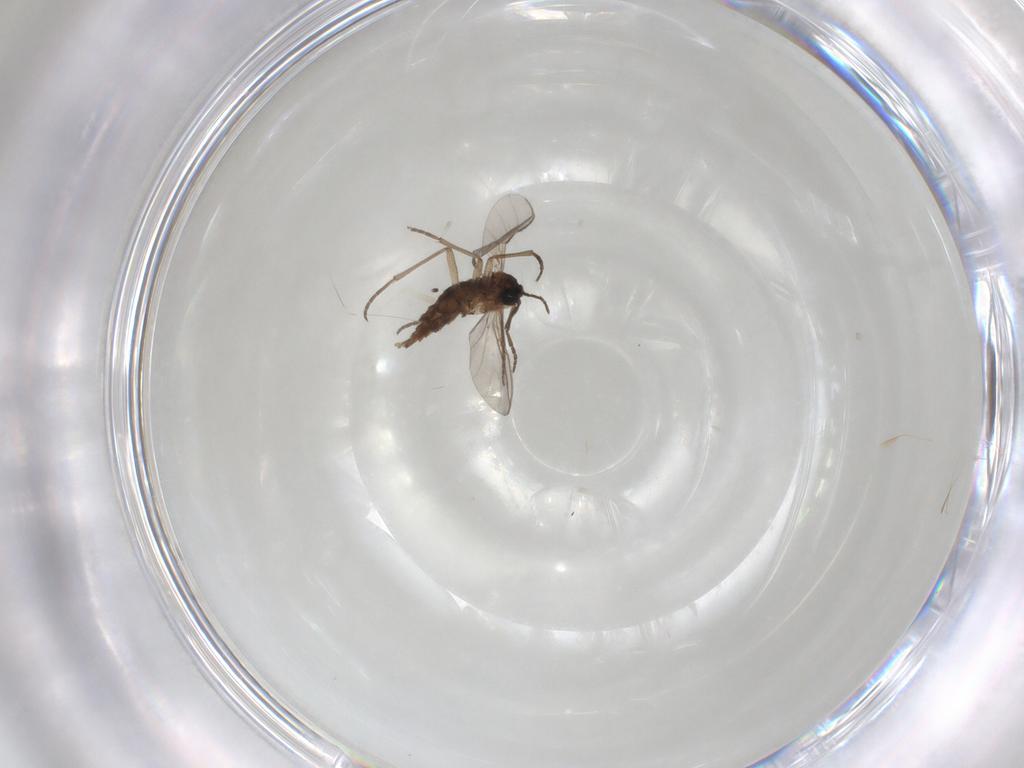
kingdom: Animalia
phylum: Arthropoda
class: Insecta
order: Diptera
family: Sciaridae
